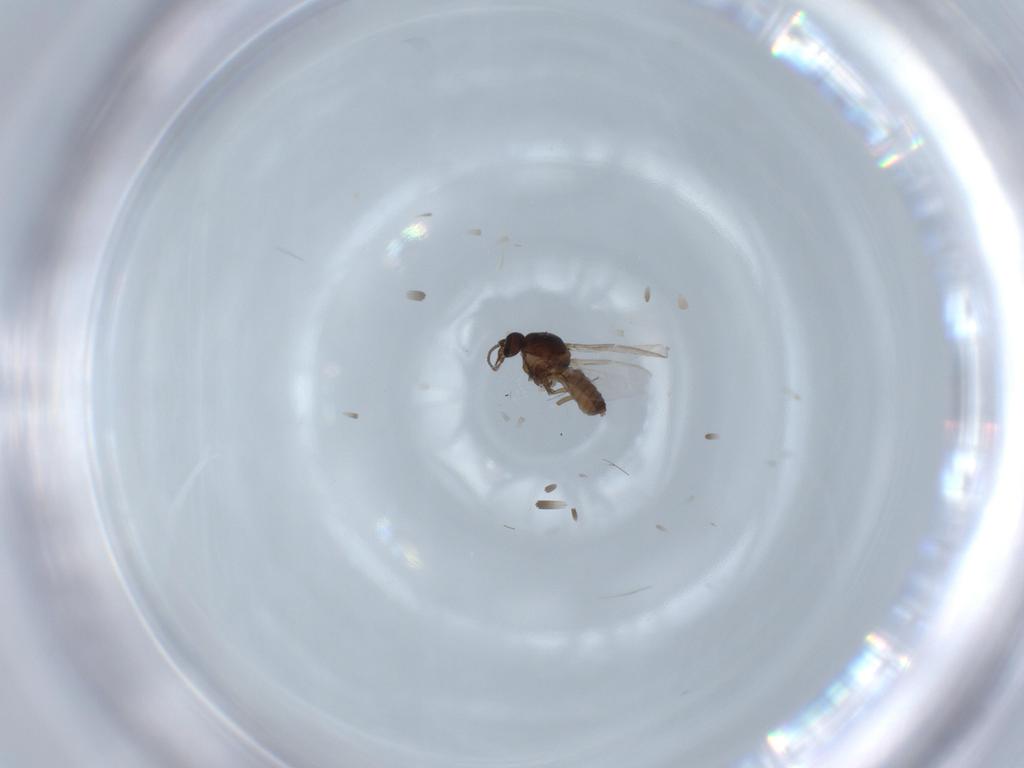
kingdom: Animalia
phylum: Arthropoda
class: Insecta
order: Diptera
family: Ceratopogonidae
